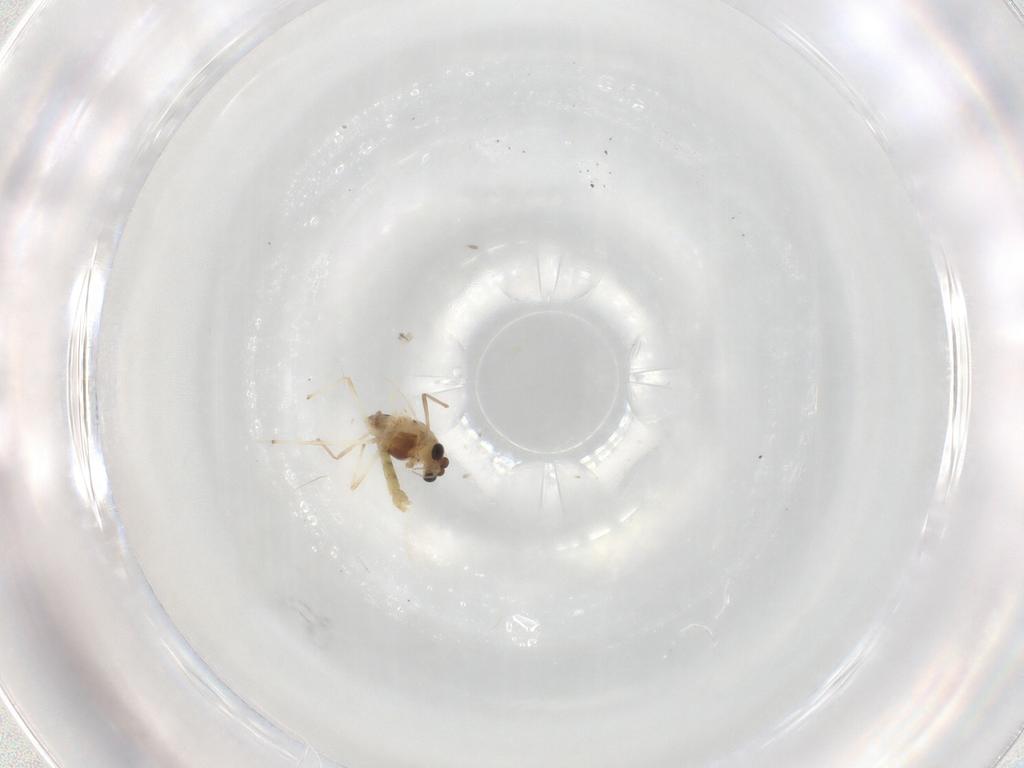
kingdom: Animalia
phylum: Arthropoda
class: Insecta
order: Diptera
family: Chironomidae
